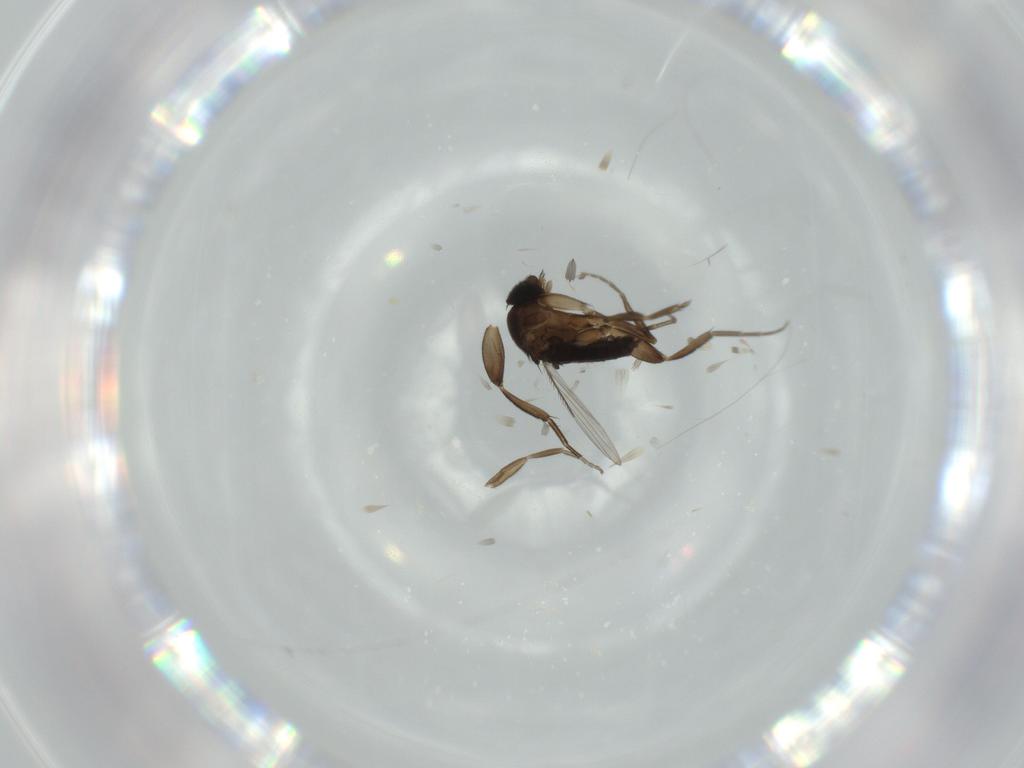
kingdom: Animalia
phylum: Arthropoda
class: Insecta
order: Diptera
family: Phoridae
